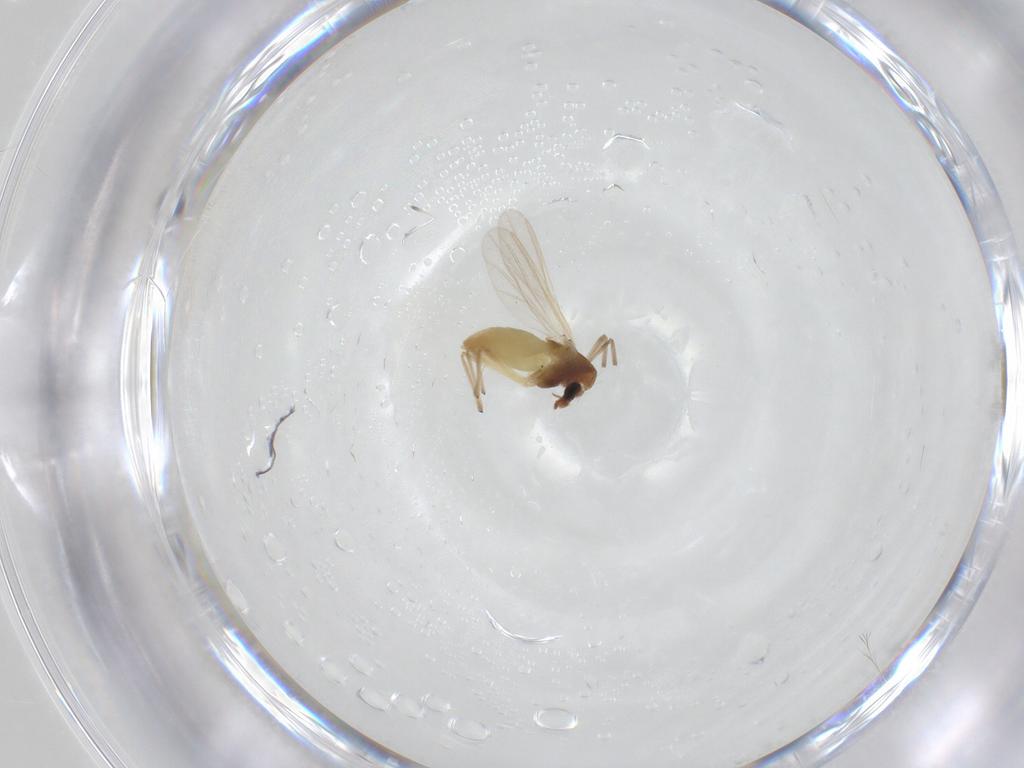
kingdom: Animalia
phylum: Arthropoda
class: Insecta
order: Diptera
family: Chironomidae
